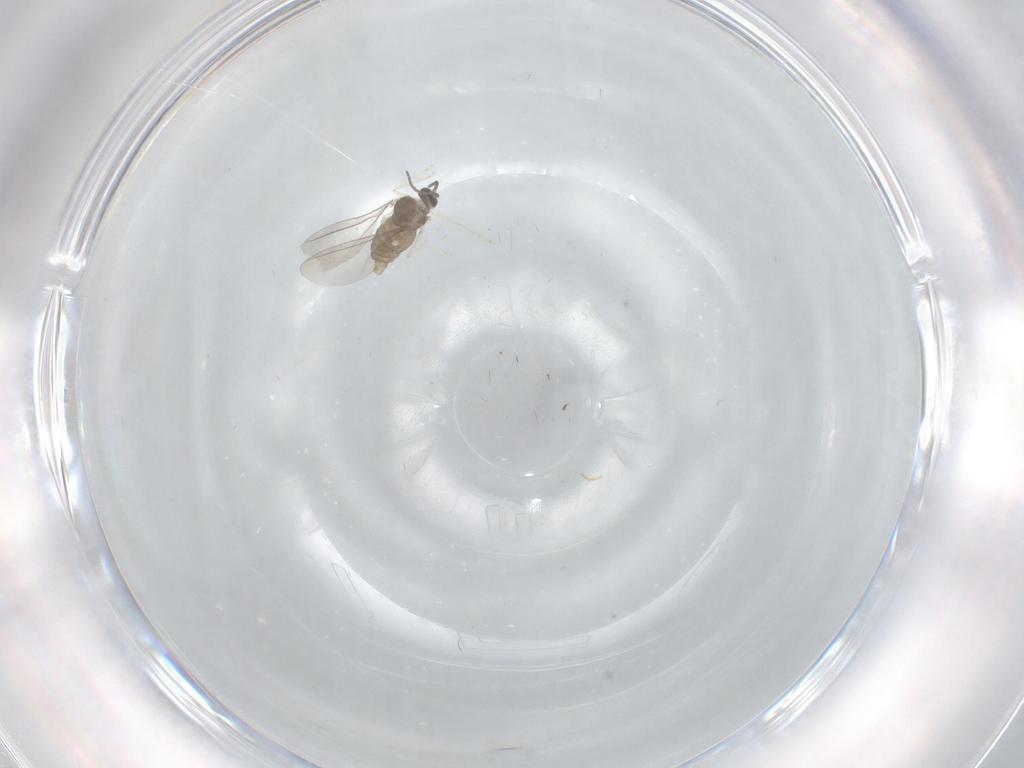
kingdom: Animalia
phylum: Arthropoda
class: Insecta
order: Diptera
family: Cecidomyiidae
